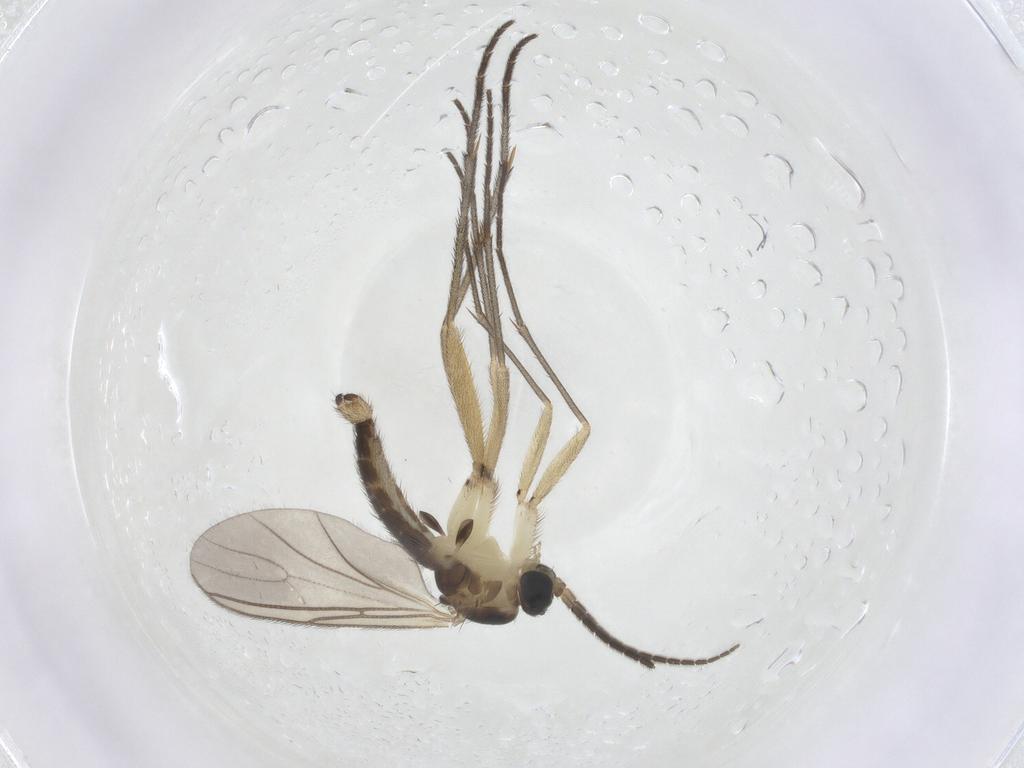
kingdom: Animalia
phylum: Arthropoda
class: Insecta
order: Diptera
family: Sciaridae
